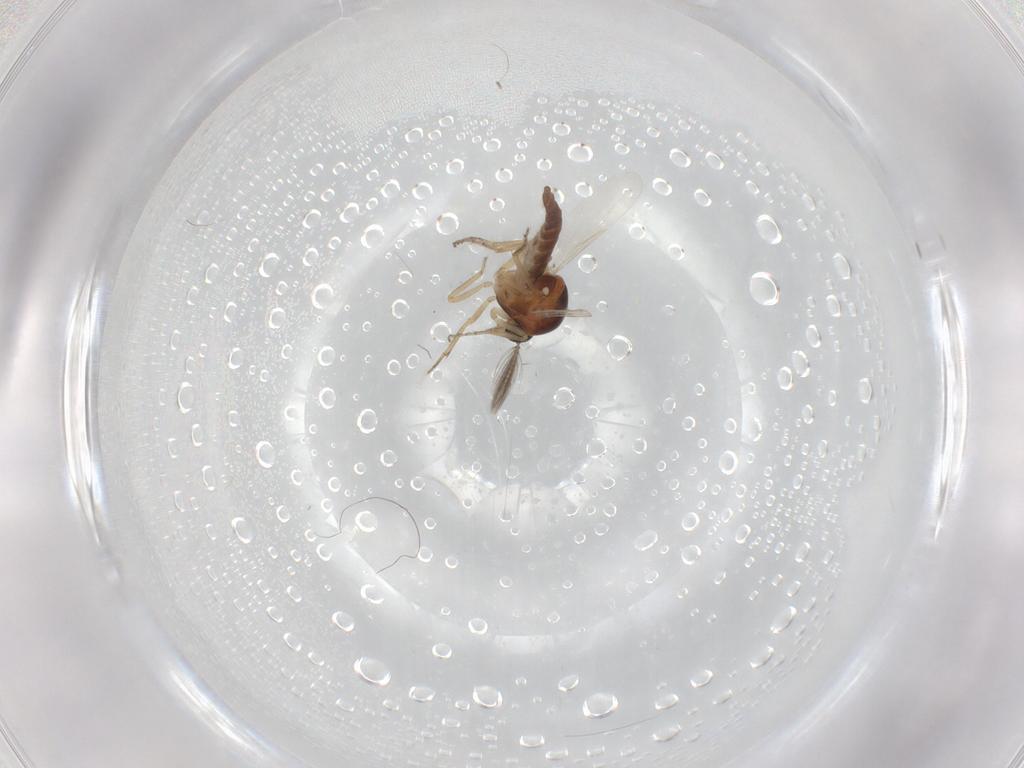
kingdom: Animalia
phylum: Arthropoda
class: Insecta
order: Diptera
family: Ceratopogonidae
